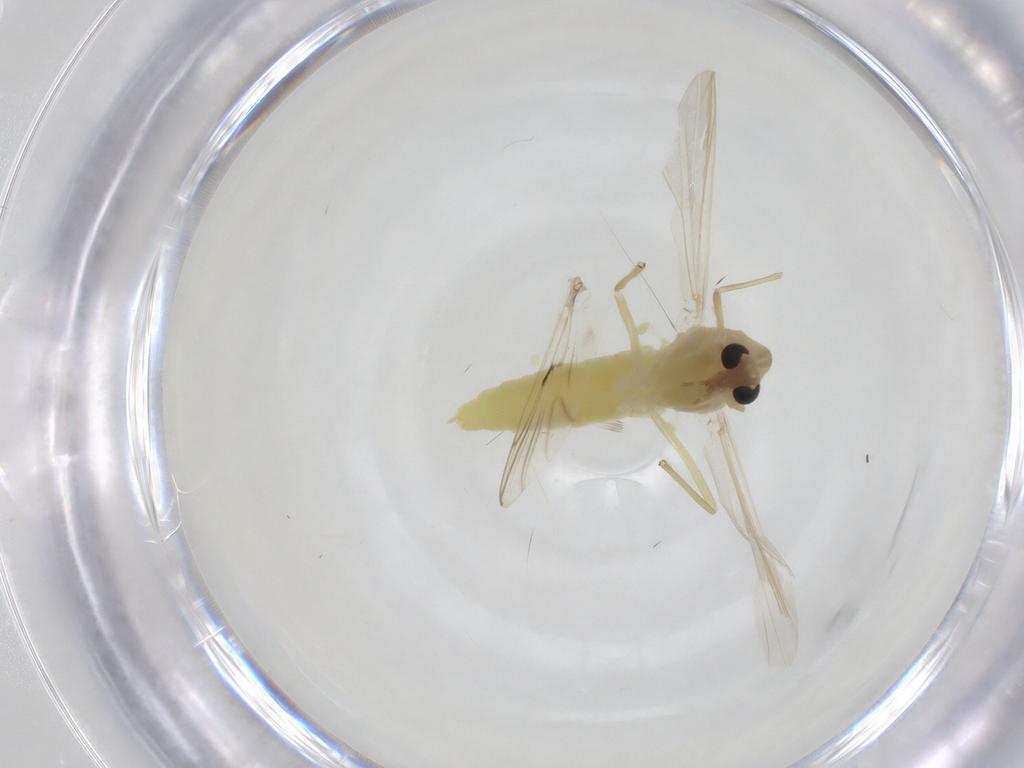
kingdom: Animalia
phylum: Arthropoda
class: Insecta
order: Diptera
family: Chironomidae
